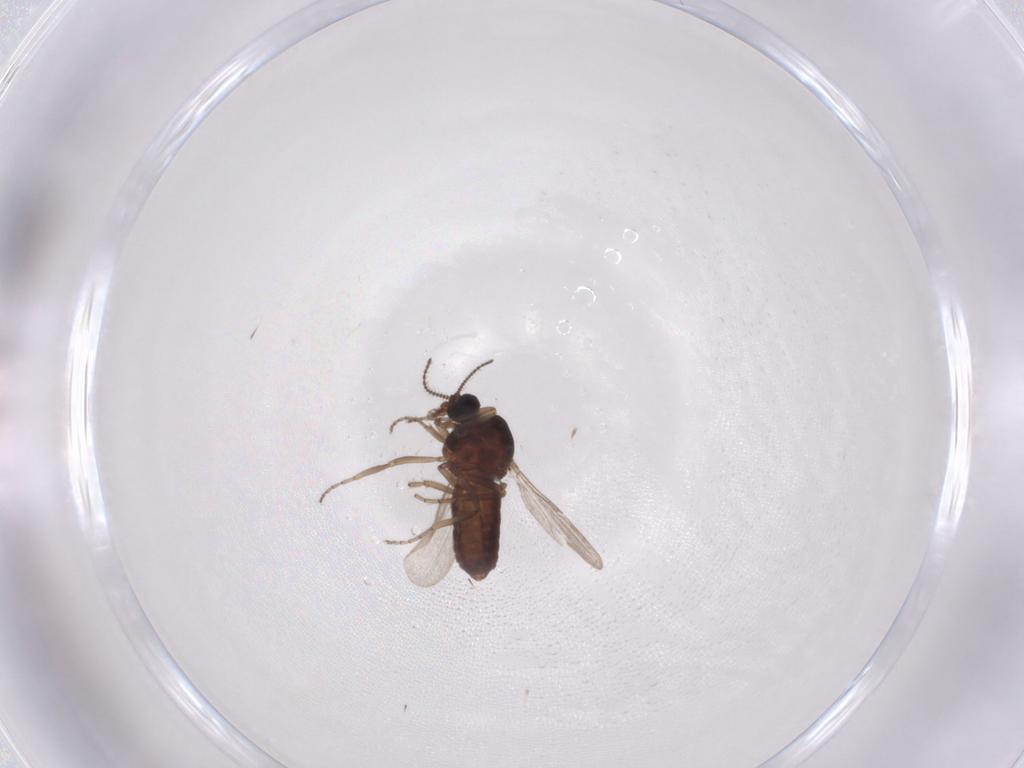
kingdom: Animalia
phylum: Arthropoda
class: Insecta
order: Diptera
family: Ceratopogonidae
